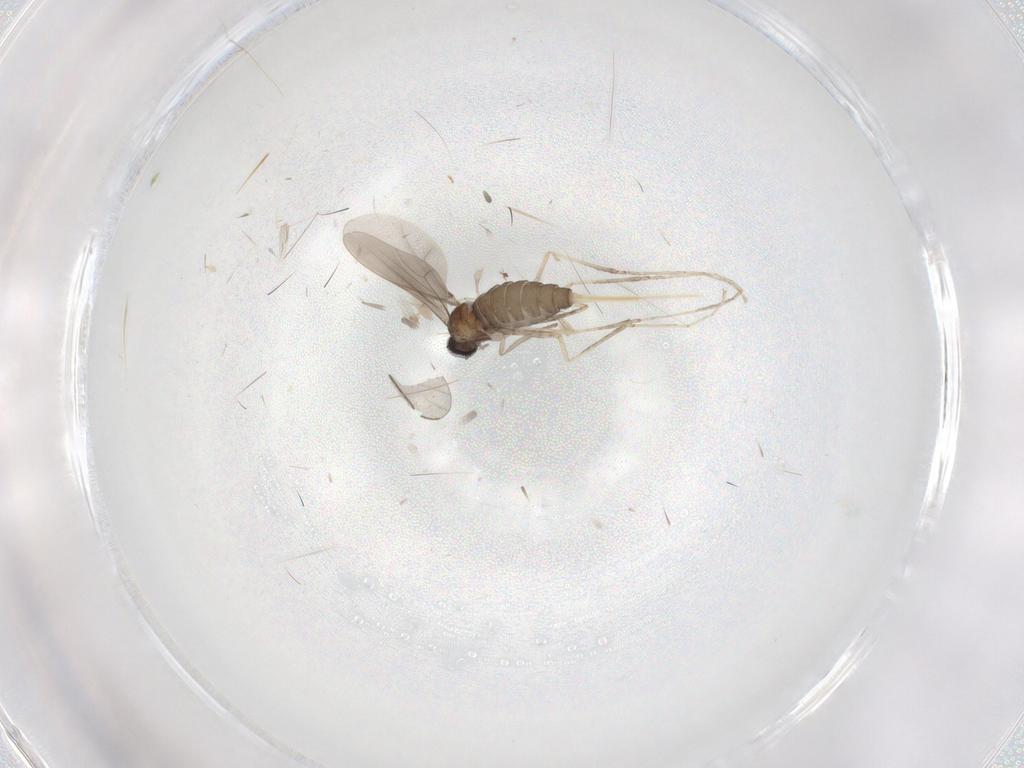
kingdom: Animalia
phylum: Arthropoda
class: Insecta
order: Diptera
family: Cecidomyiidae
